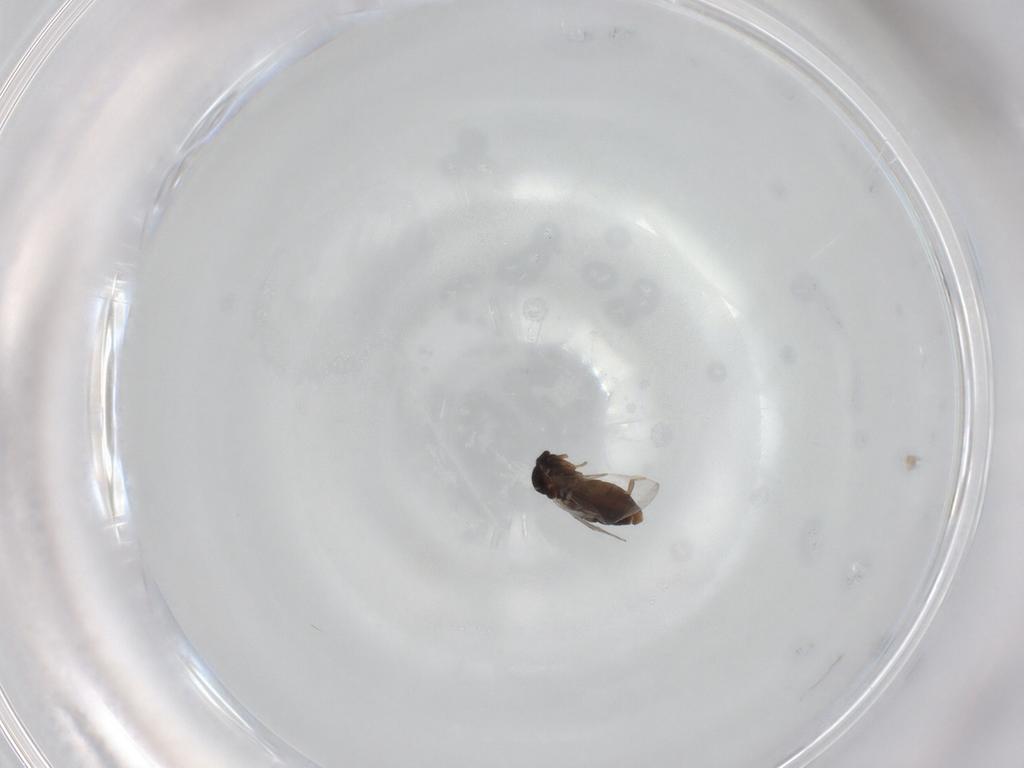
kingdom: Animalia
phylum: Arthropoda
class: Insecta
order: Diptera
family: Scatopsidae
